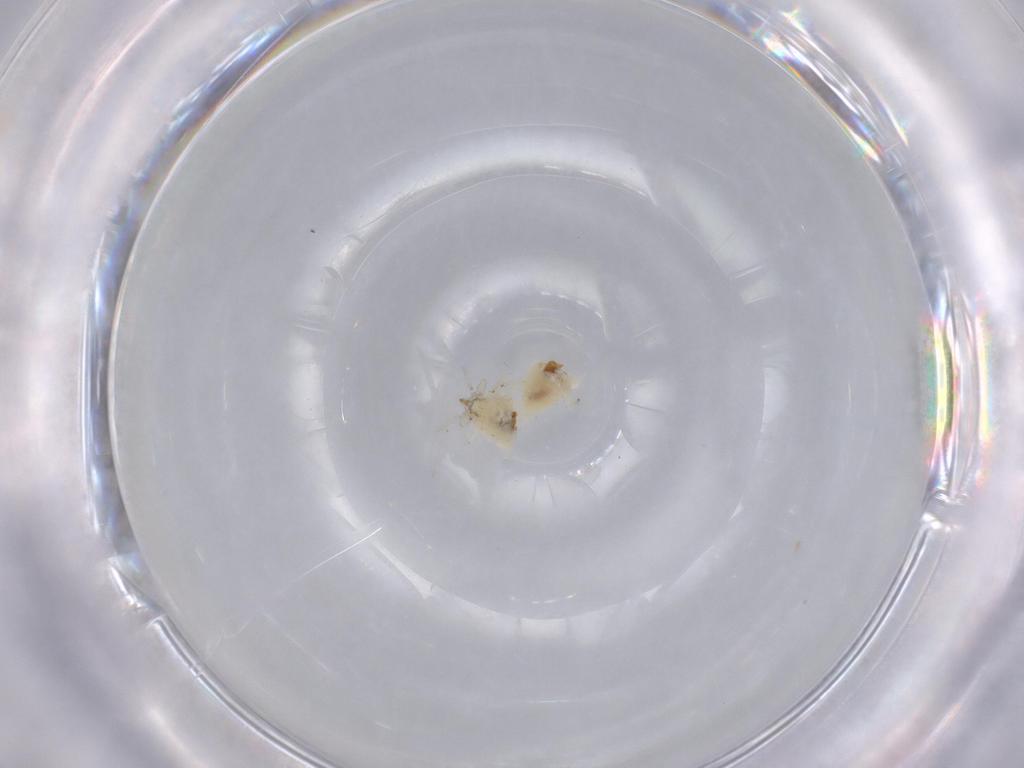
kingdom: Animalia
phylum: Arthropoda
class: Insecta
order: Neuroptera
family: Coniopterygidae
